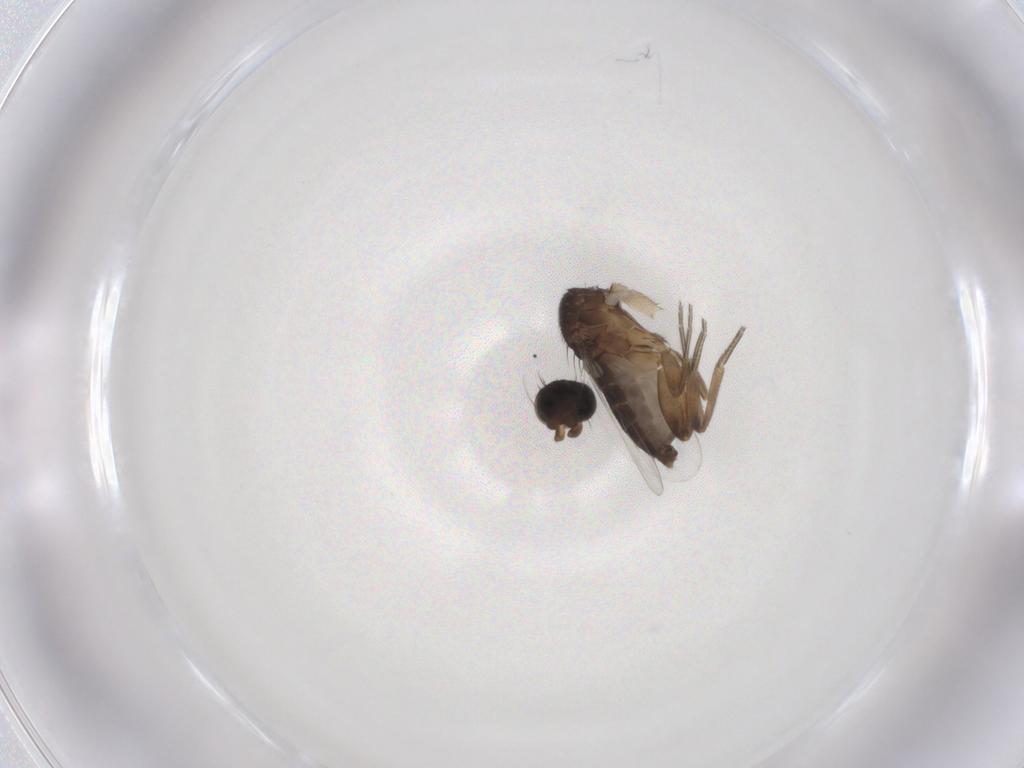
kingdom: Animalia
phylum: Arthropoda
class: Insecta
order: Diptera
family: Phoridae
